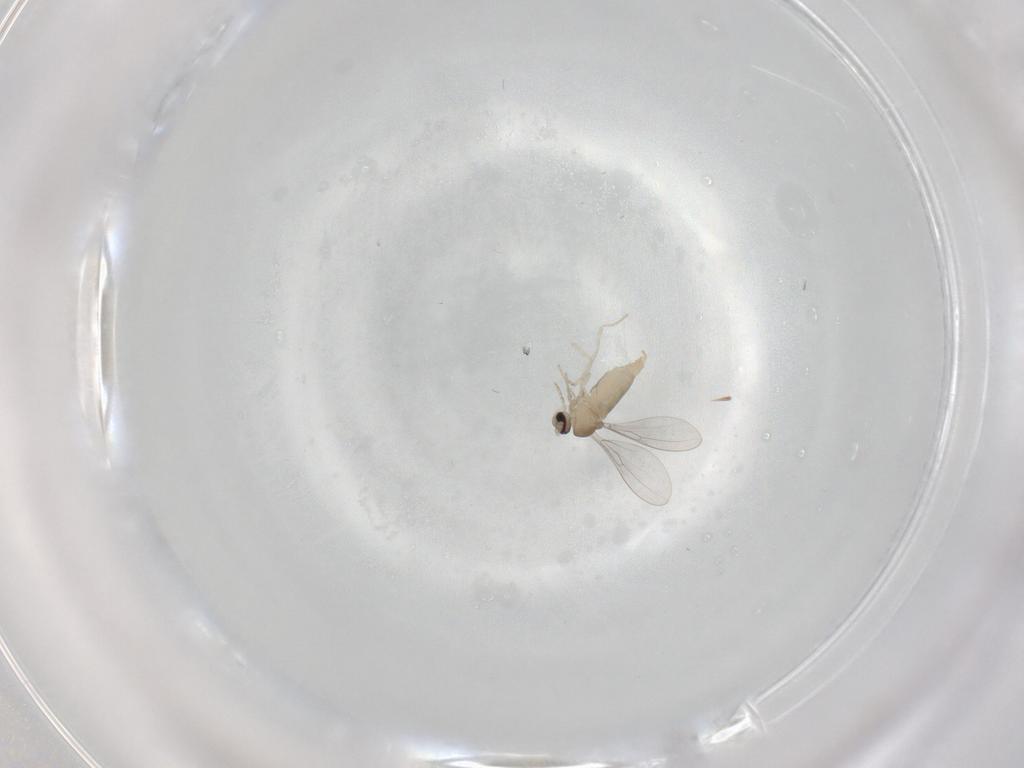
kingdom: Animalia
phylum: Arthropoda
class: Insecta
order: Diptera
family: Cecidomyiidae
